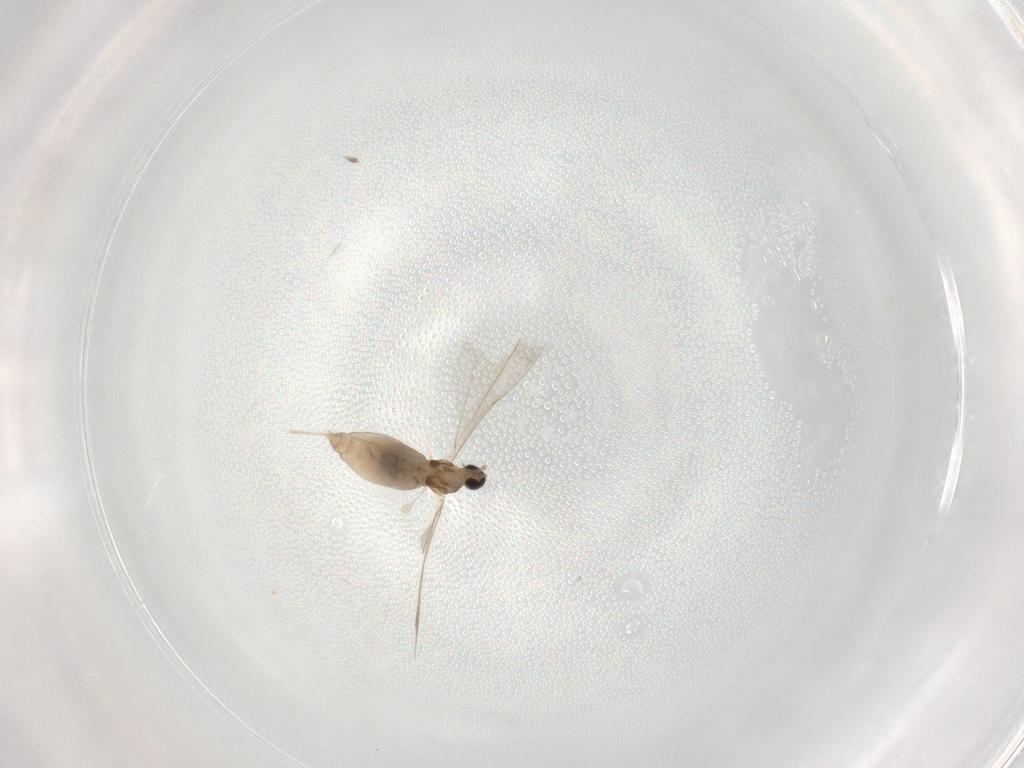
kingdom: Animalia
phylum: Arthropoda
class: Insecta
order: Diptera
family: Cecidomyiidae
